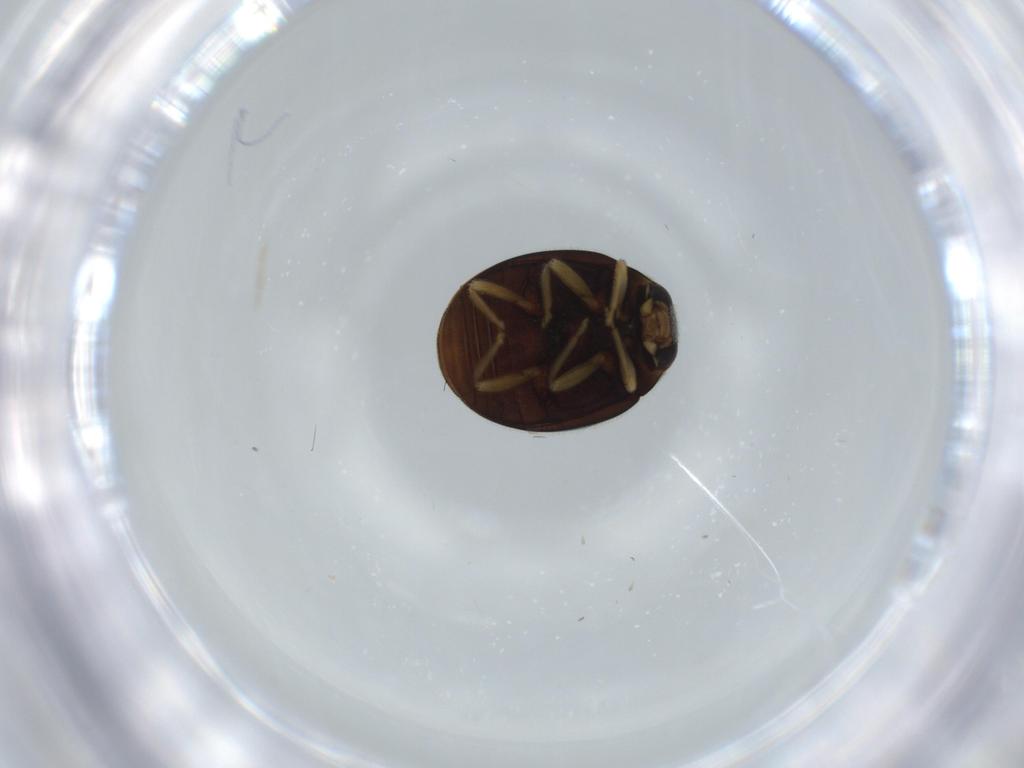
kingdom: Animalia
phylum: Arthropoda
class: Insecta
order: Coleoptera
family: Coccinellidae
